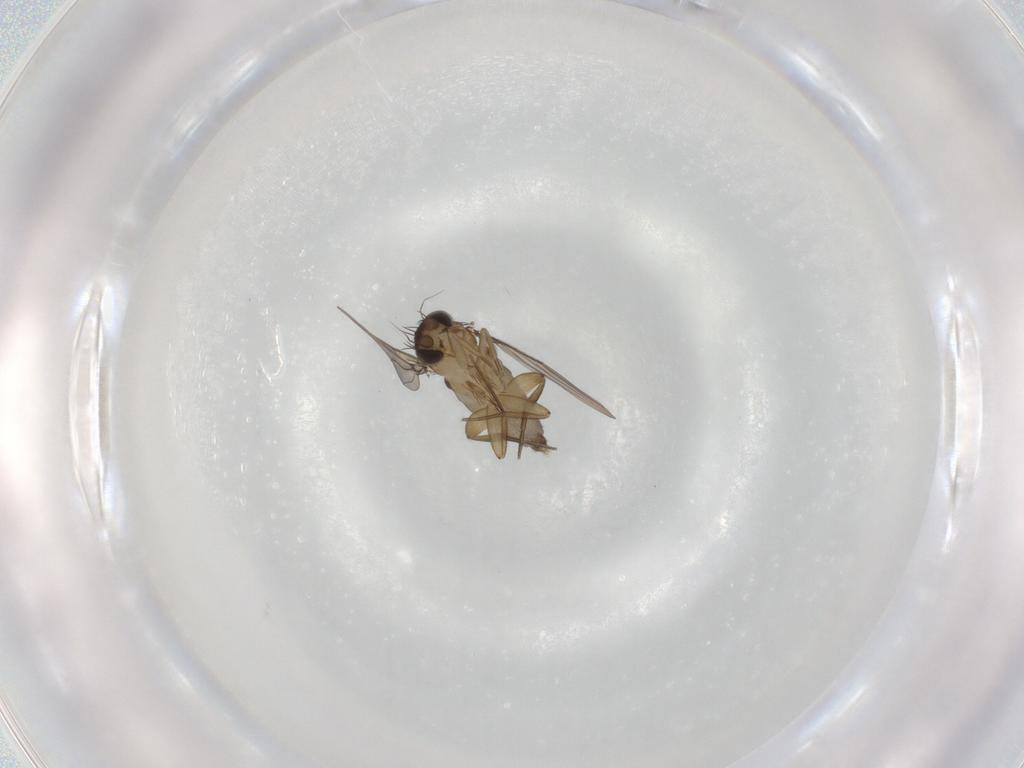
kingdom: Animalia
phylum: Arthropoda
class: Insecta
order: Diptera
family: Phoridae
